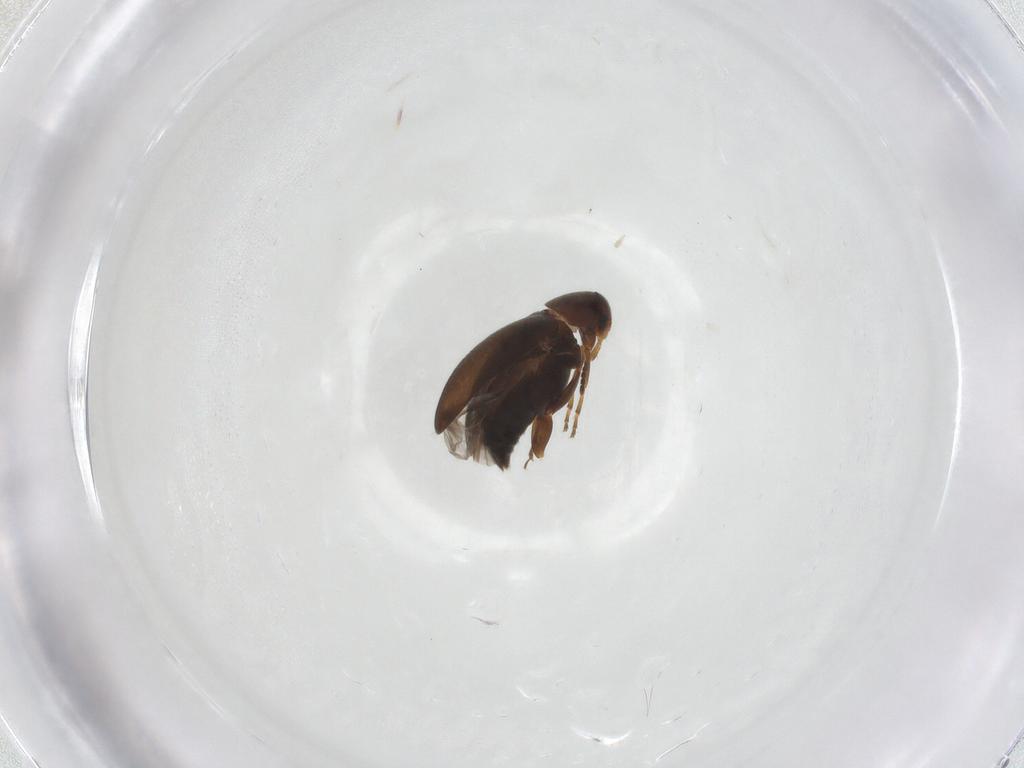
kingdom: Animalia
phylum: Arthropoda
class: Insecta
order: Coleoptera
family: Scraptiidae
